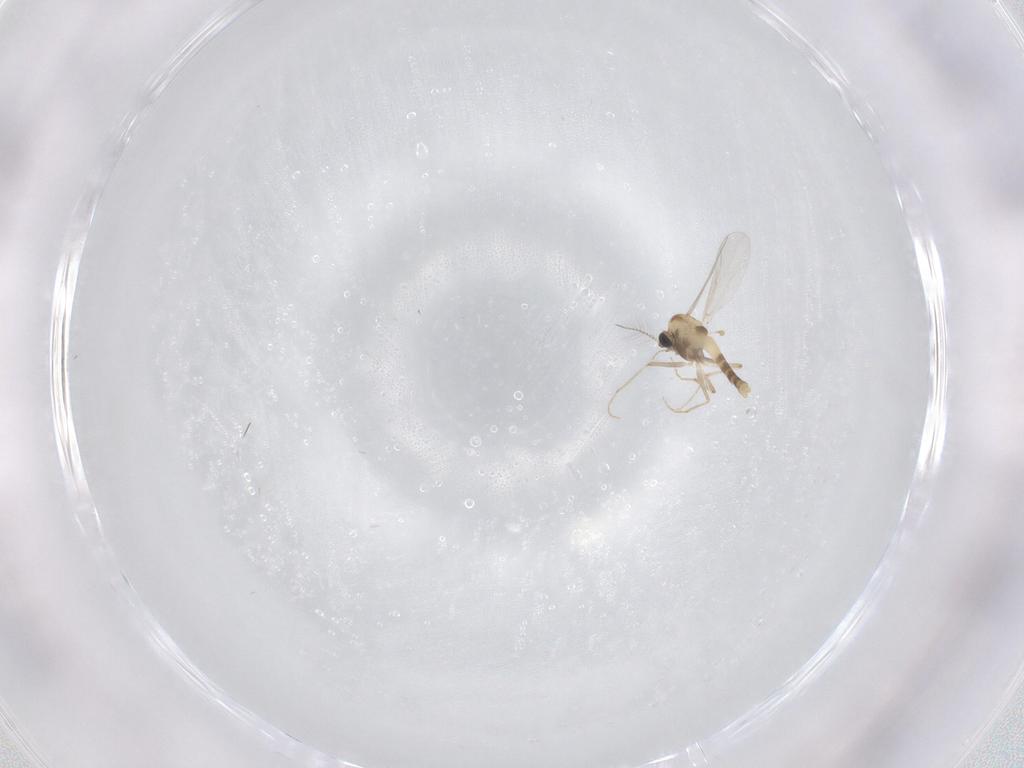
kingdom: Animalia
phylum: Arthropoda
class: Insecta
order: Diptera
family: Chironomidae
